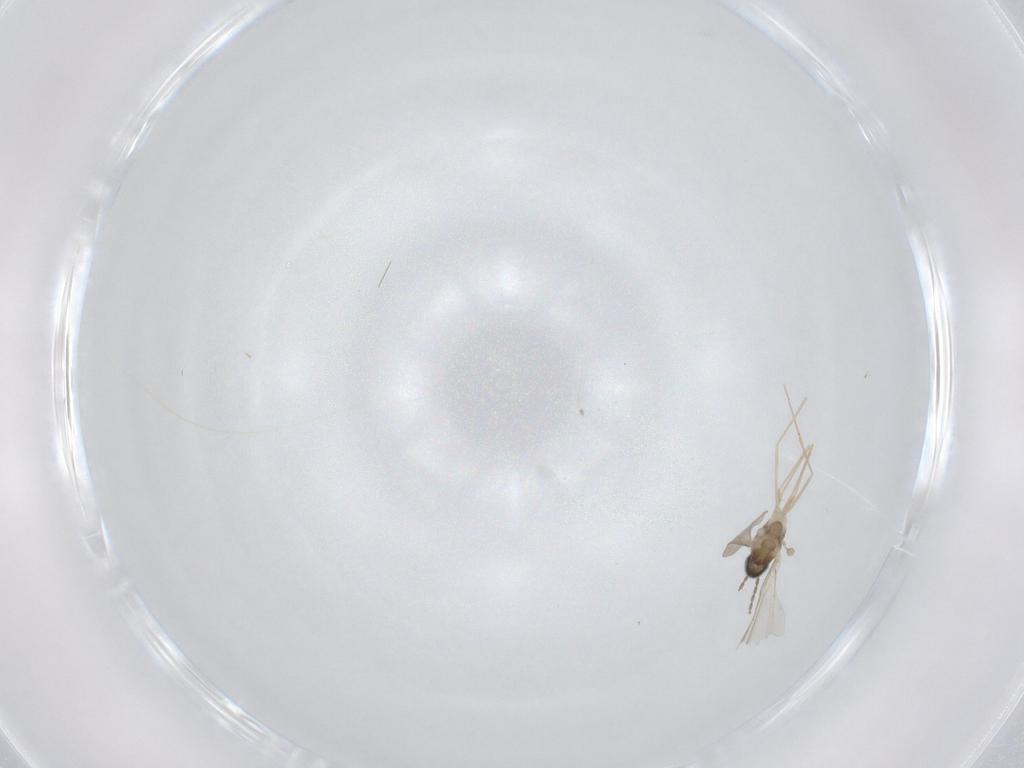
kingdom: Animalia
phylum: Arthropoda
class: Insecta
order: Diptera
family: Cecidomyiidae
